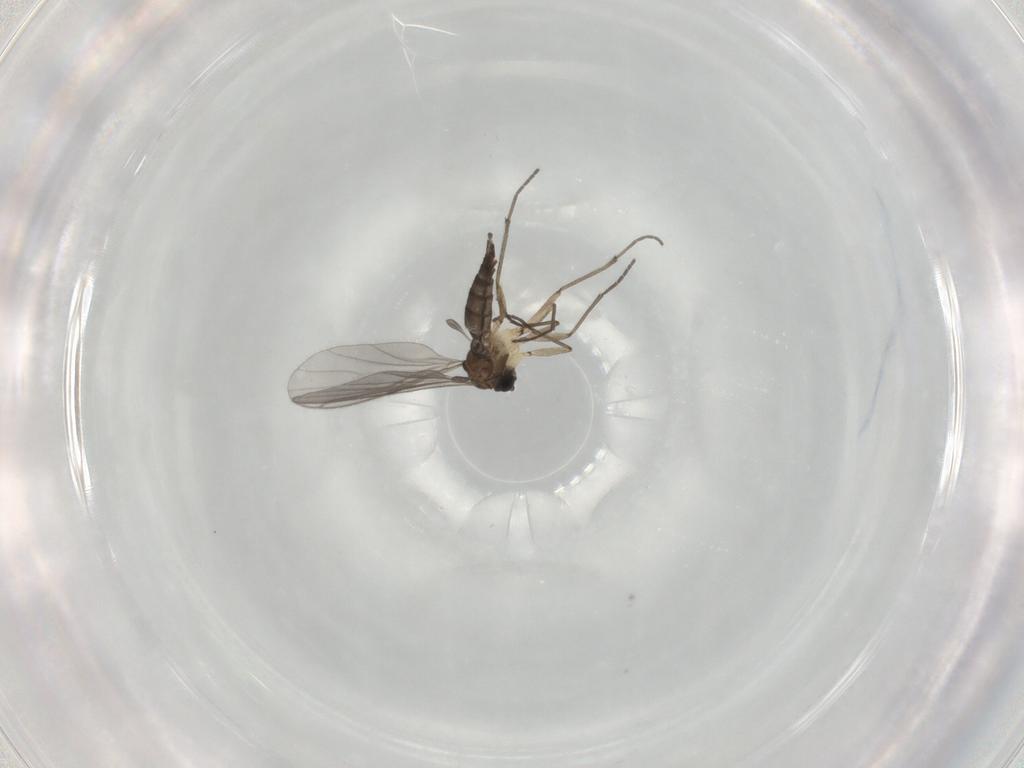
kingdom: Animalia
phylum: Arthropoda
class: Insecta
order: Diptera
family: Sciaridae
